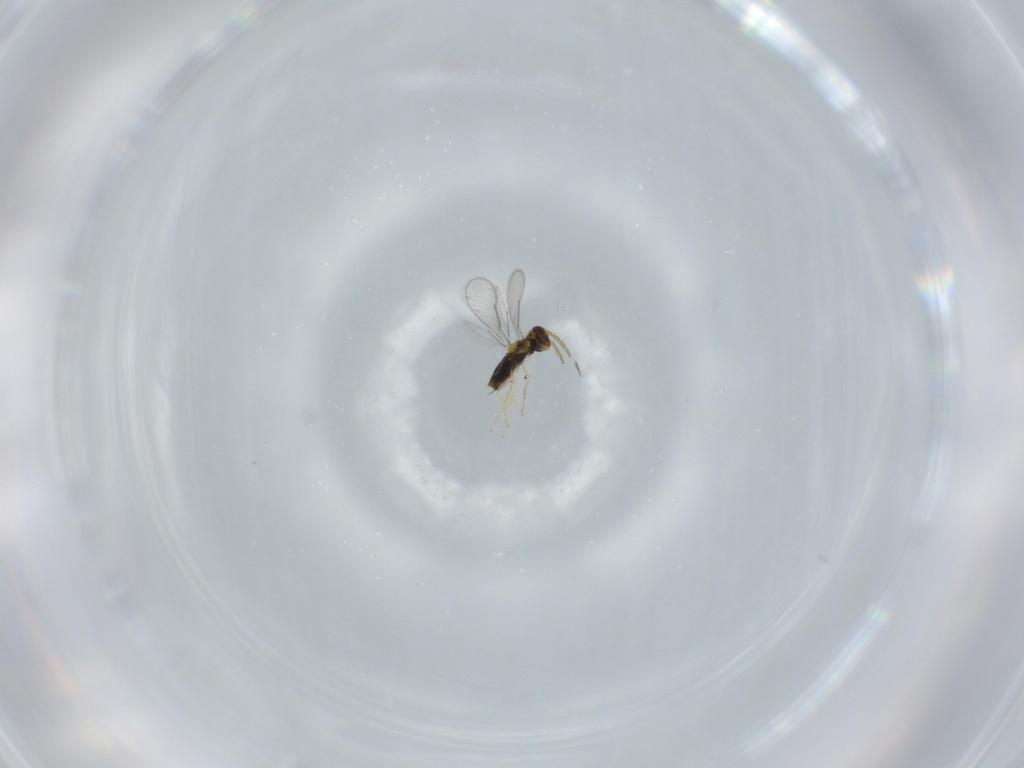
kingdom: Animalia
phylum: Arthropoda
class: Insecta
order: Hymenoptera
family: Aphelinidae
